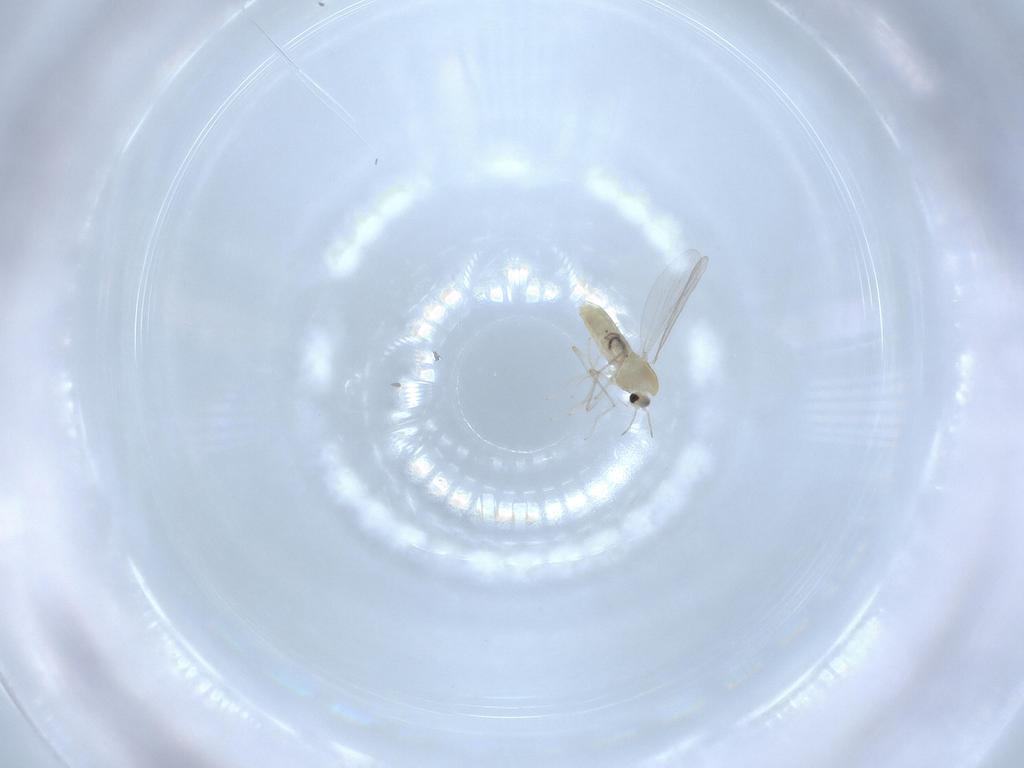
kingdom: Animalia
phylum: Arthropoda
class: Insecta
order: Diptera
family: Chironomidae
